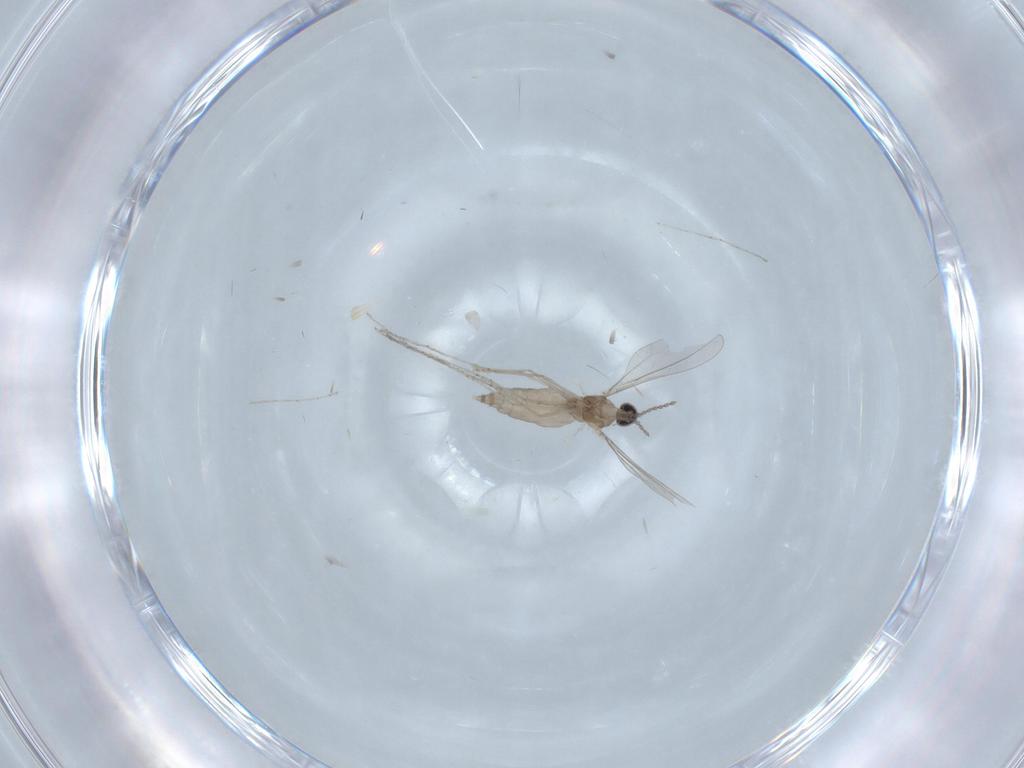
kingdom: Animalia
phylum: Arthropoda
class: Insecta
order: Diptera
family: Cecidomyiidae
